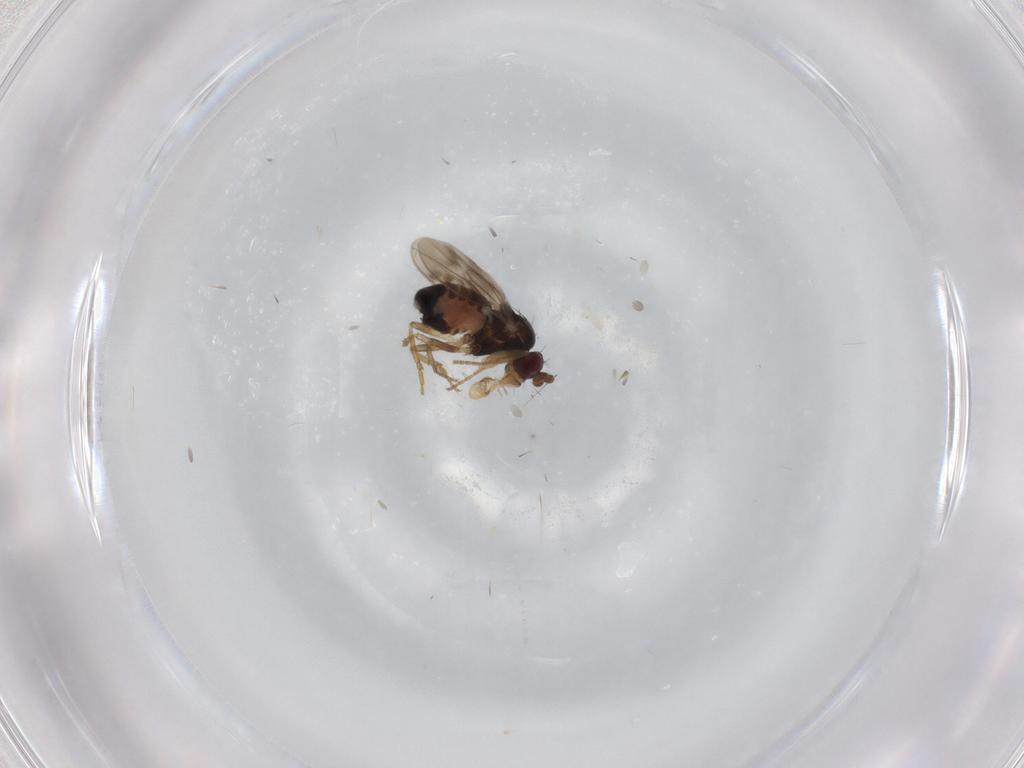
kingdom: Animalia
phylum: Arthropoda
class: Insecta
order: Diptera
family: Sphaeroceridae
